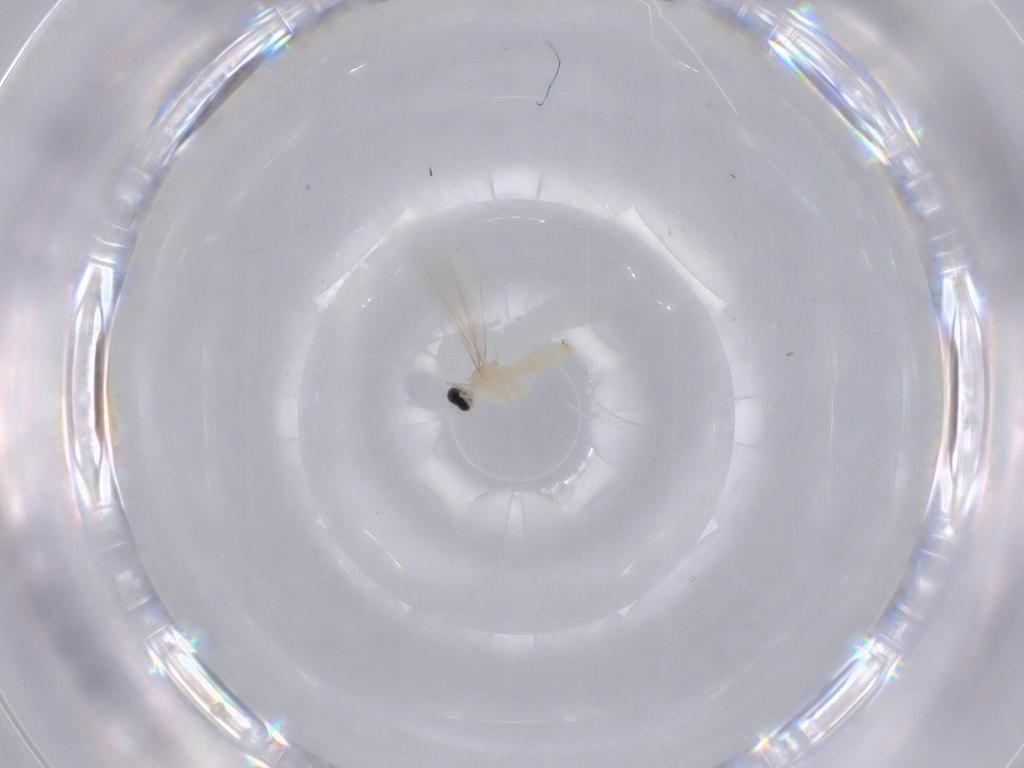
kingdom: Animalia
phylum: Arthropoda
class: Insecta
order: Diptera
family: Cecidomyiidae
